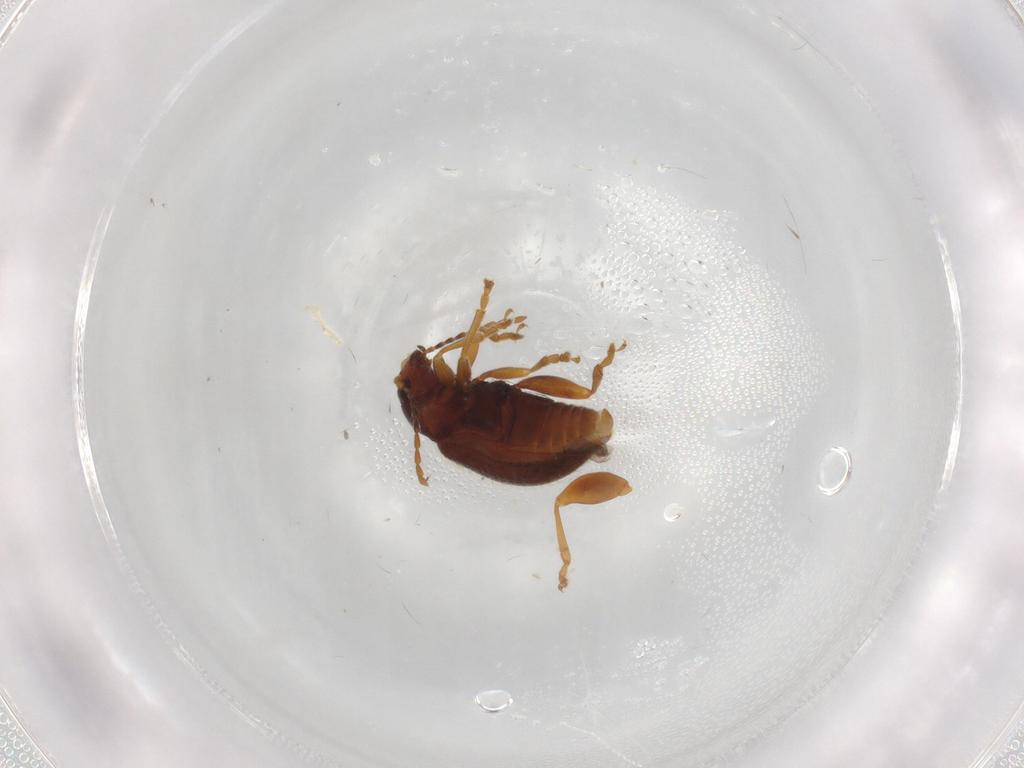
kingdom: Animalia
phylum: Arthropoda
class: Insecta
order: Coleoptera
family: Chrysomelidae
